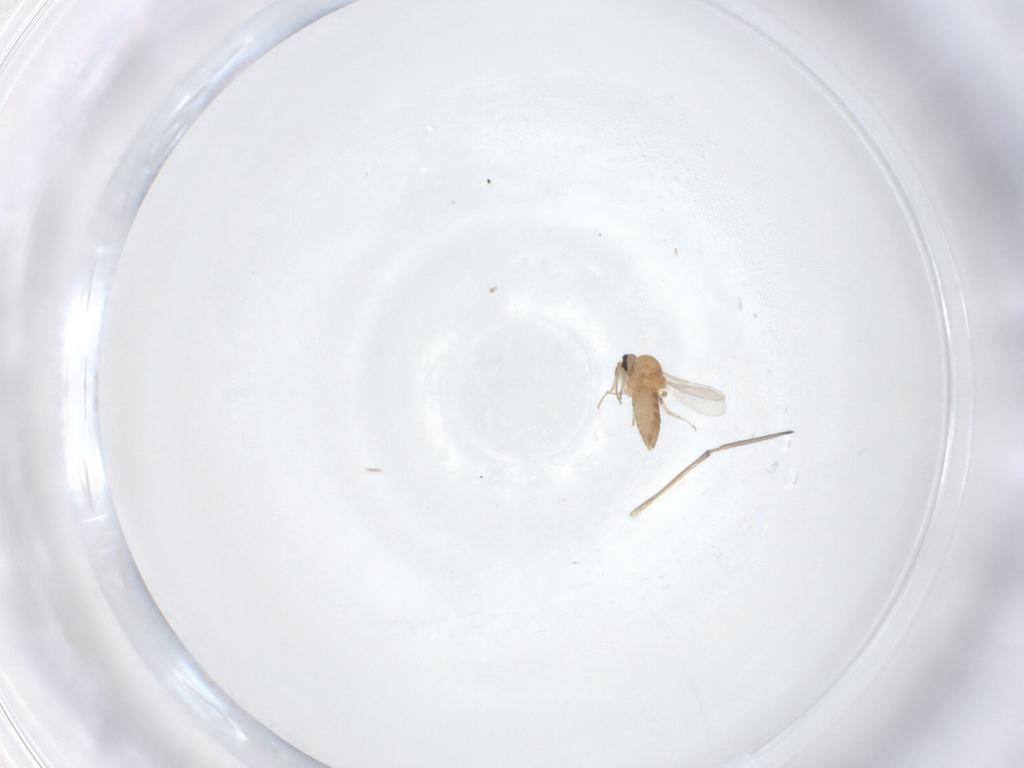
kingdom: Animalia
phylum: Arthropoda
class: Insecta
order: Diptera
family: Ceratopogonidae
